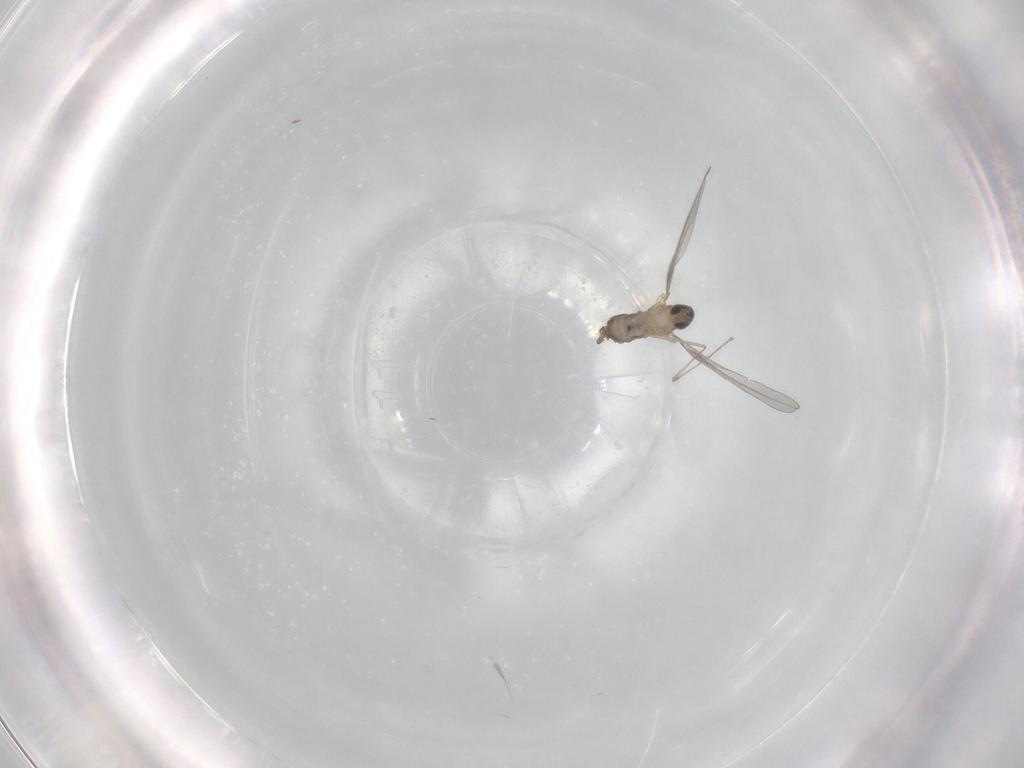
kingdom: Animalia
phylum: Arthropoda
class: Insecta
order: Diptera
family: Cecidomyiidae
